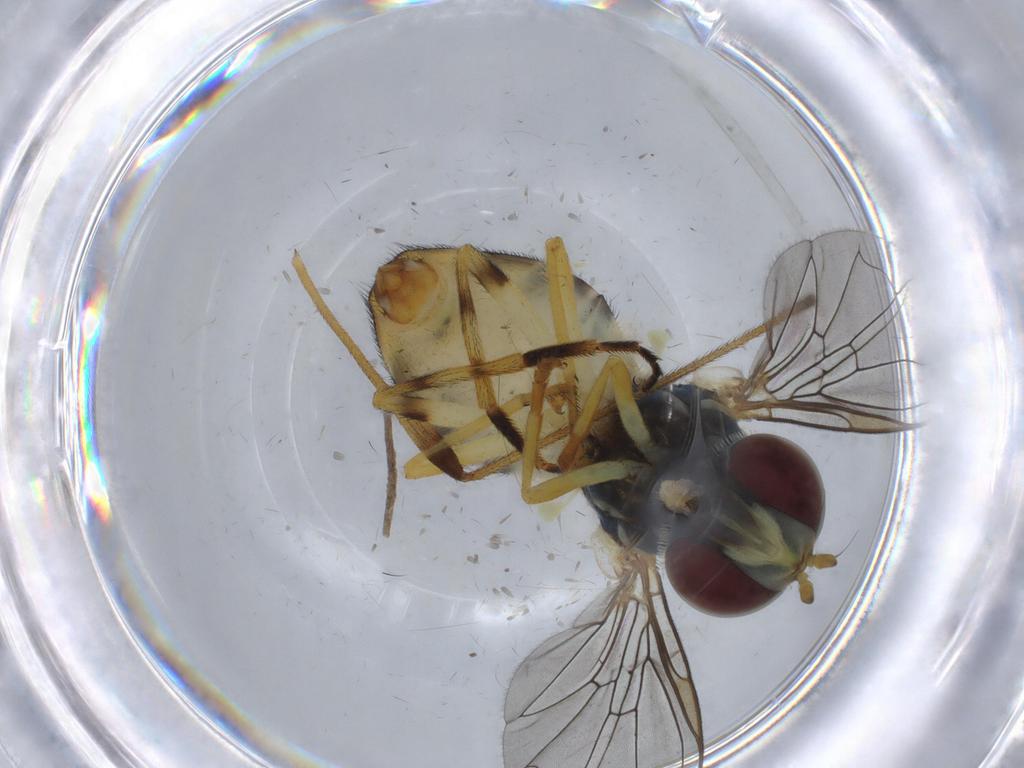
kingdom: Animalia
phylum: Arthropoda
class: Insecta
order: Diptera
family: Syrphidae
